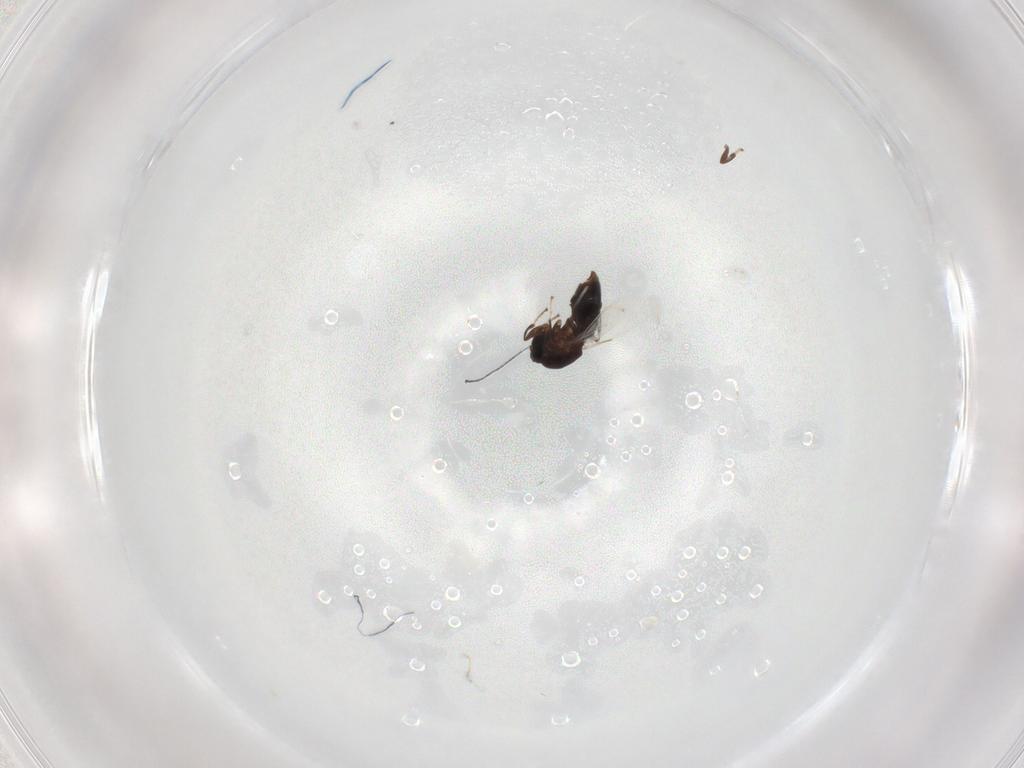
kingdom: Animalia
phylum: Arthropoda
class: Insecta
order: Diptera
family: Scatopsidae
